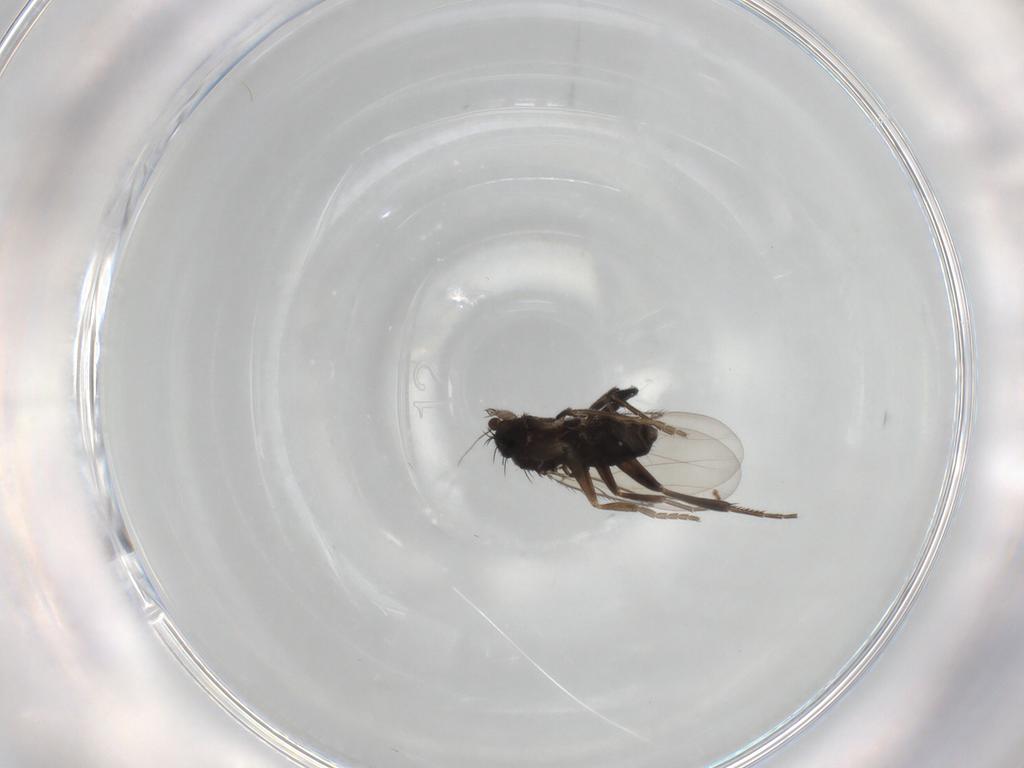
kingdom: Animalia
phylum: Arthropoda
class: Insecta
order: Diptera
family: Phoridae
